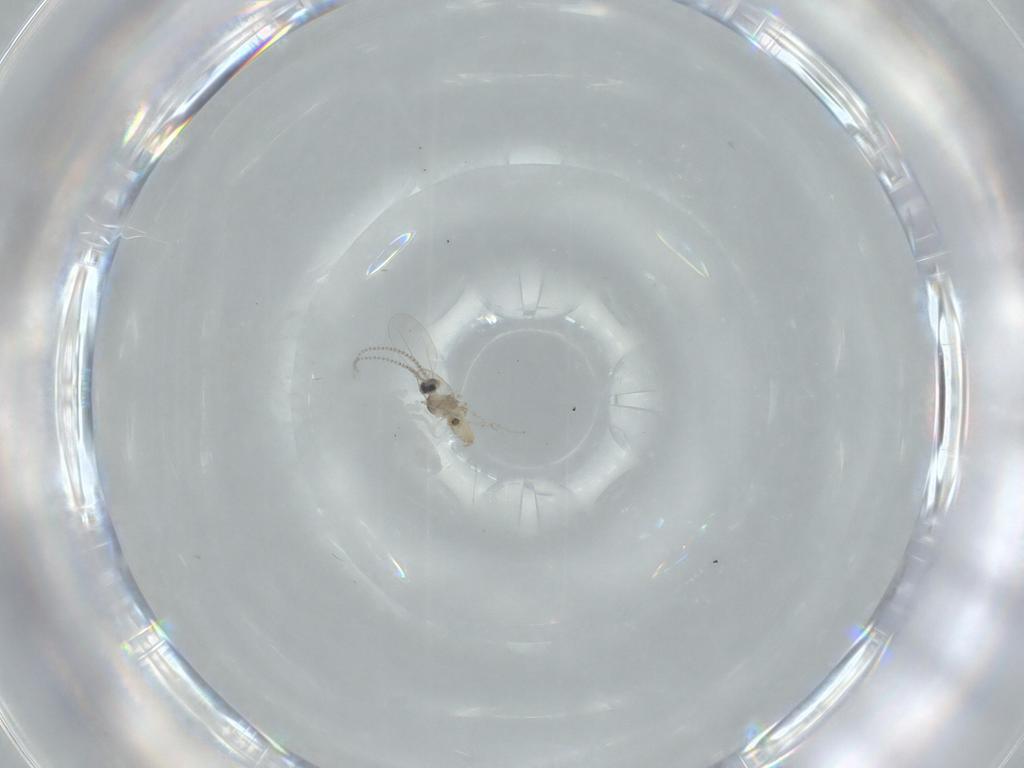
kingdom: Animalia
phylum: Arthropoda
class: Insecta
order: Diptera
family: Cecidomyiidae
